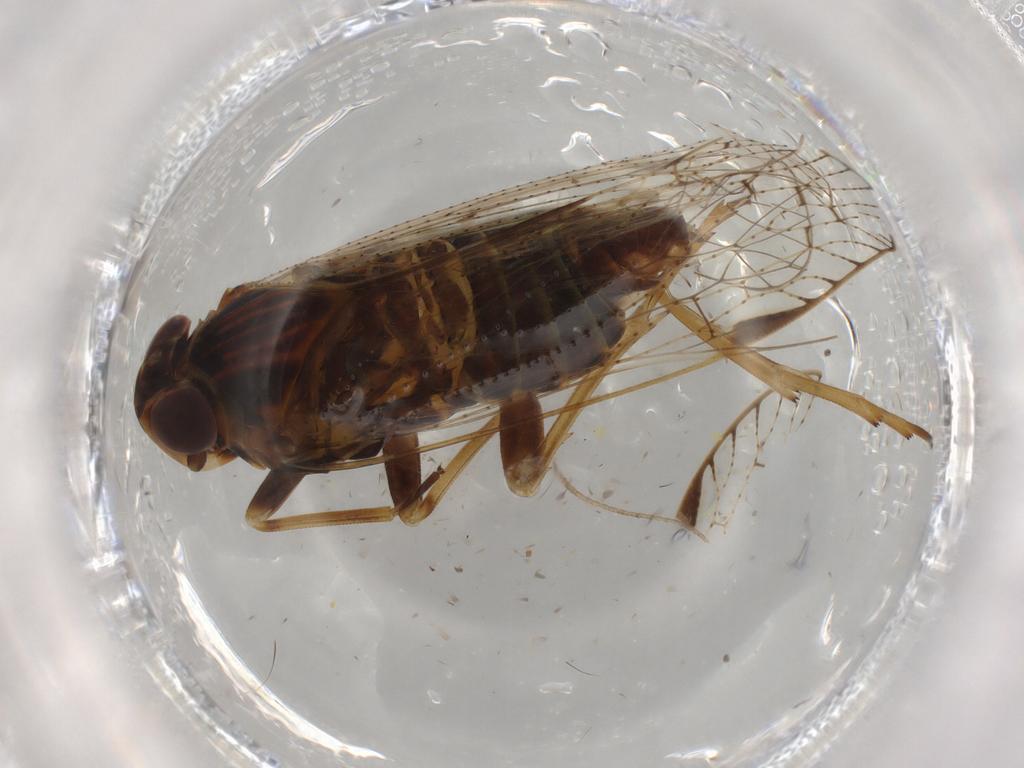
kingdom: Animalia
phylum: Arthropoda
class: Insecta
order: Hemiptera
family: Cixiidae
